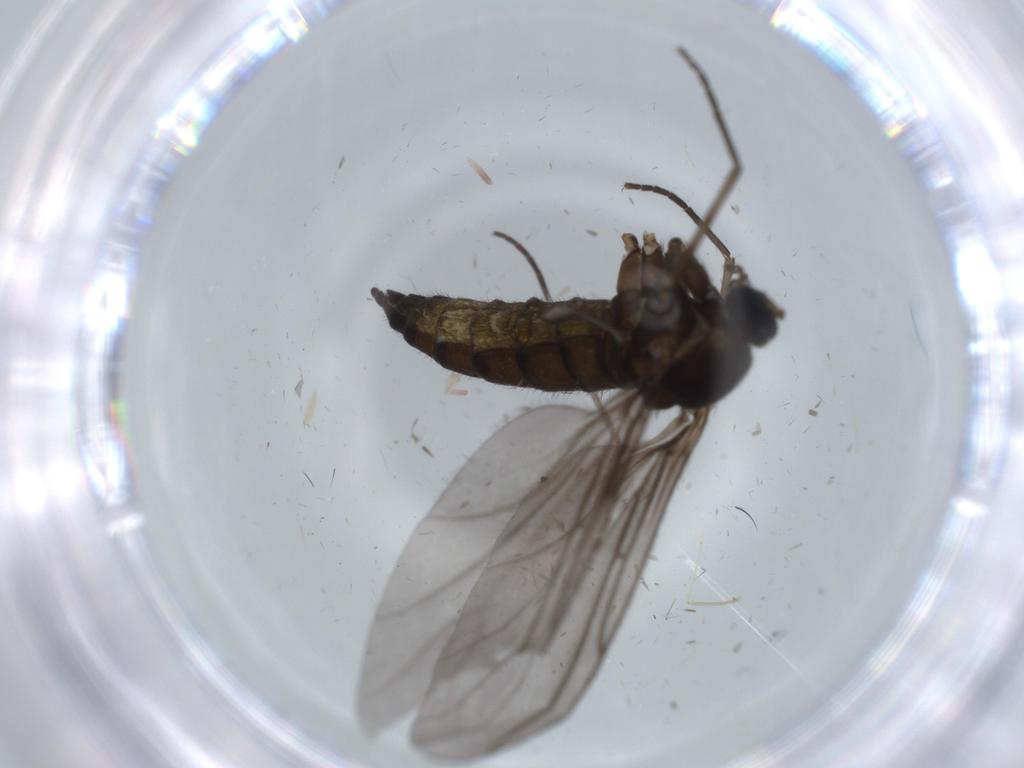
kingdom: Animalia
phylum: Arthropoda
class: Insecta
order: Diptera
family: Sciaridae
